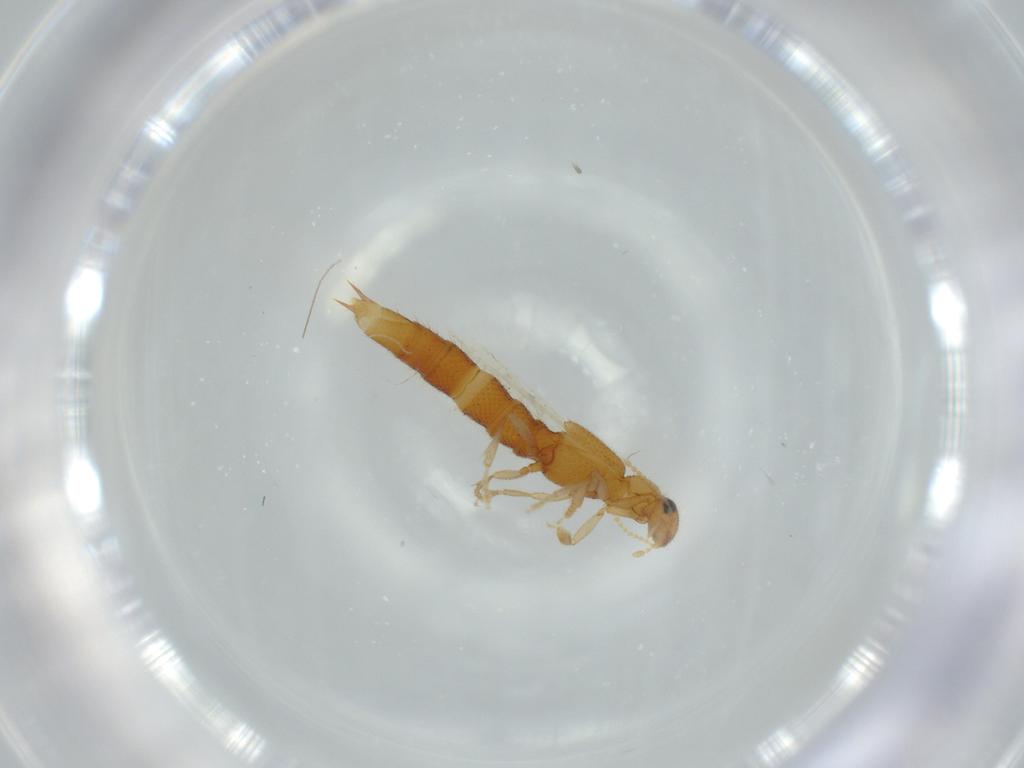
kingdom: Animalia
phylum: Arthropoda
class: Insecta
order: Coleoptera
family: Staphylinidae
